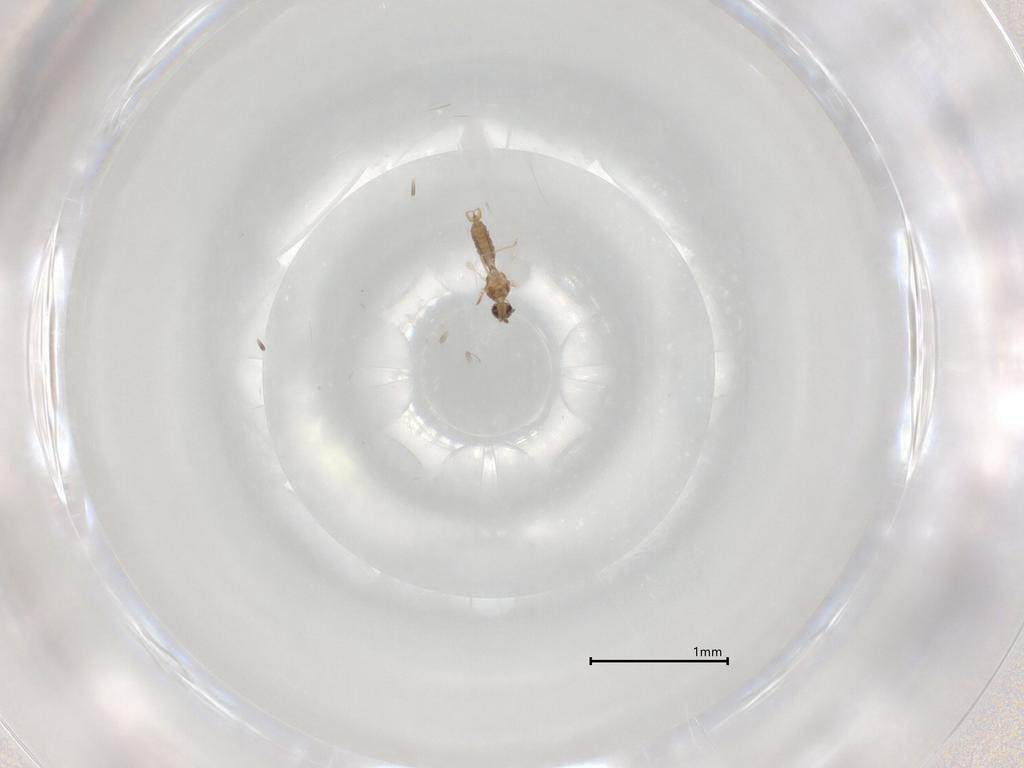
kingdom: Animalia
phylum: Arthropoda
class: Insecta
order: Diptera
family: Cecidomyiidae
